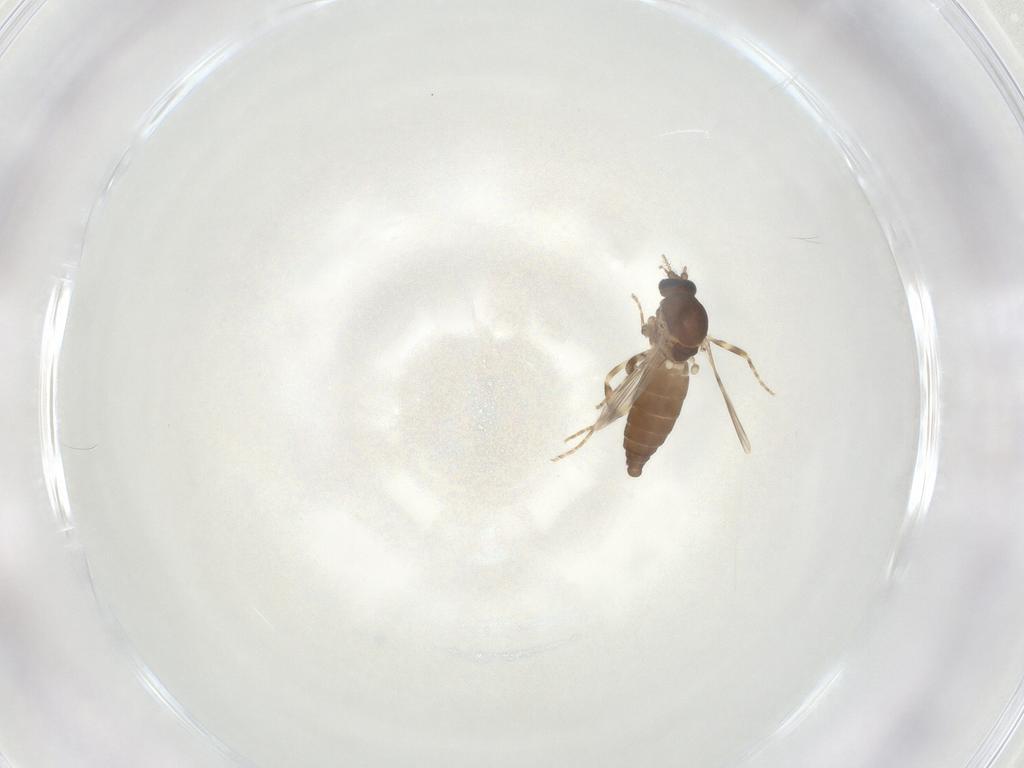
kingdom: Animalia
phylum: Arthropoda
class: Insecta
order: Diptera
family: Ceratopogonidae
